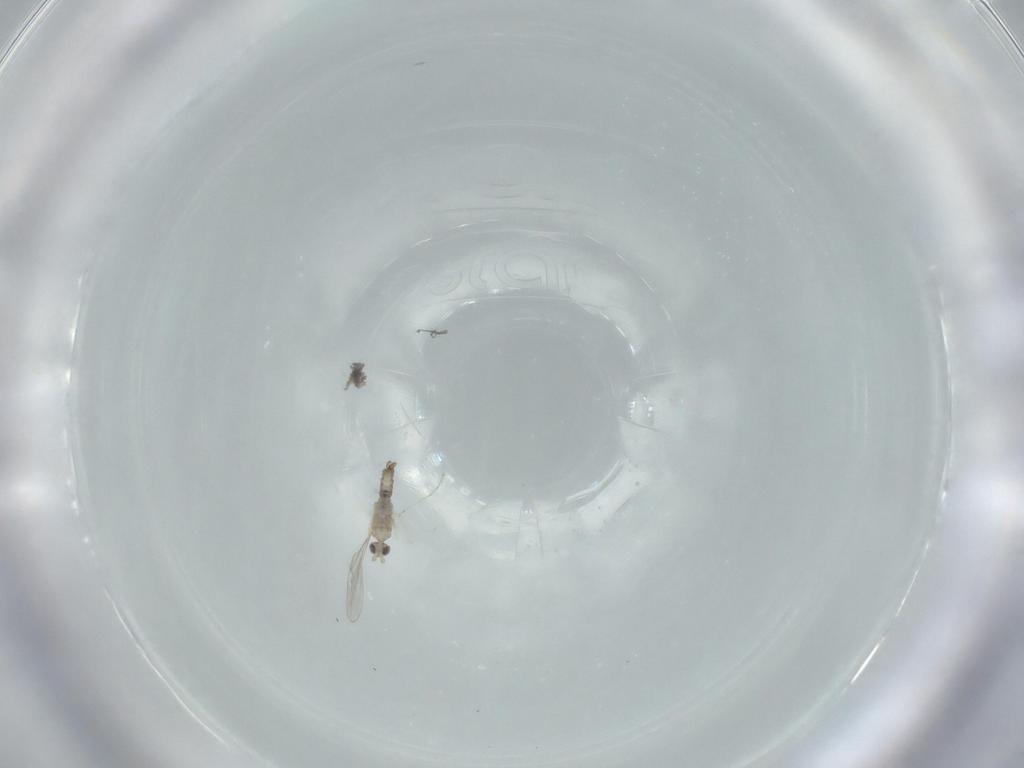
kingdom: Animalia
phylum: Arthropoda
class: Insecta
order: Diptera
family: Cecidomyiidae
